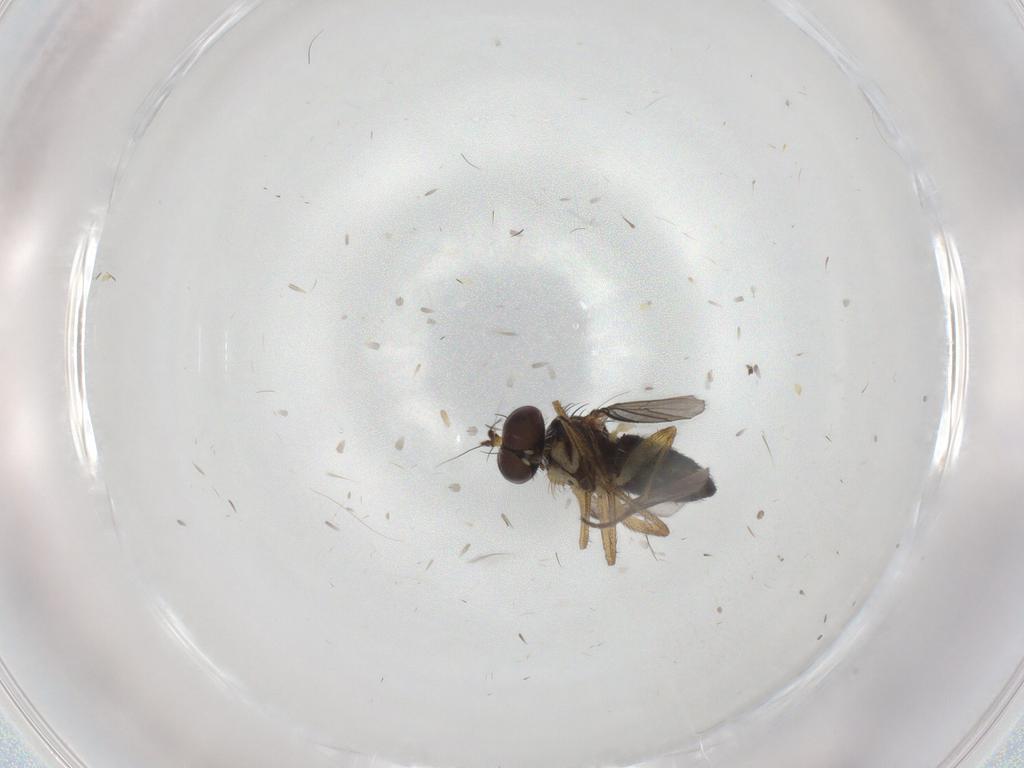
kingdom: Animalia
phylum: Arthropoda
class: Insecta
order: Diptera
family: Dolichopodidae
